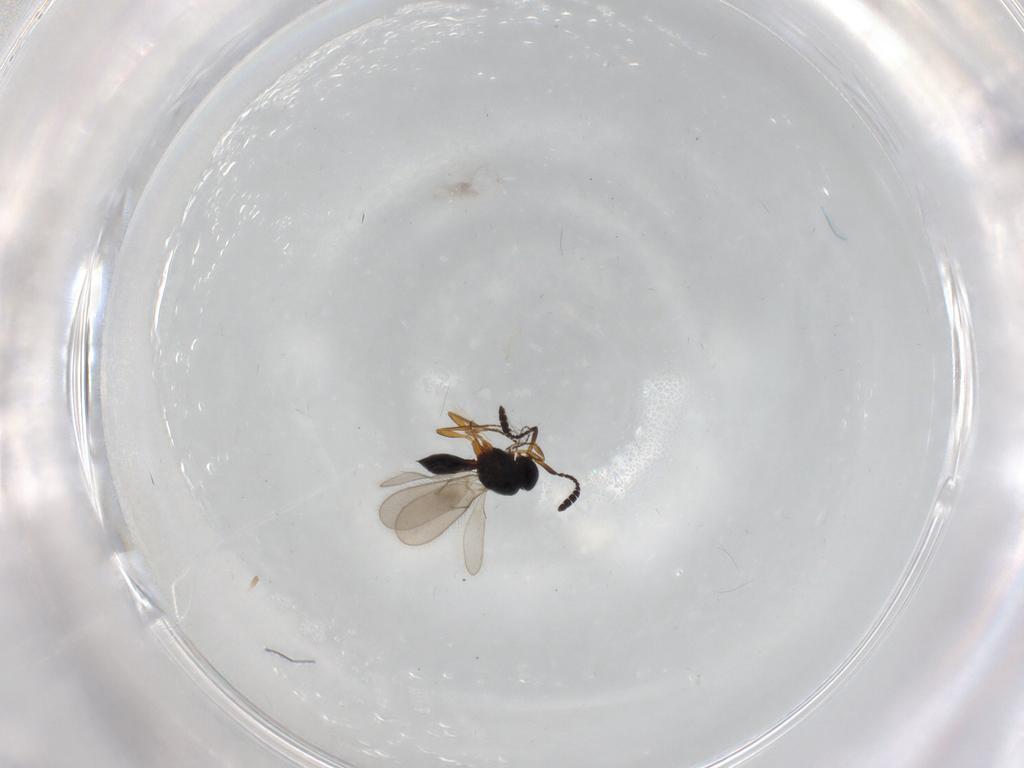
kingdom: Animalia
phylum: Arthropoda
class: Insecta
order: Hymenoptera
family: Scelionidae
